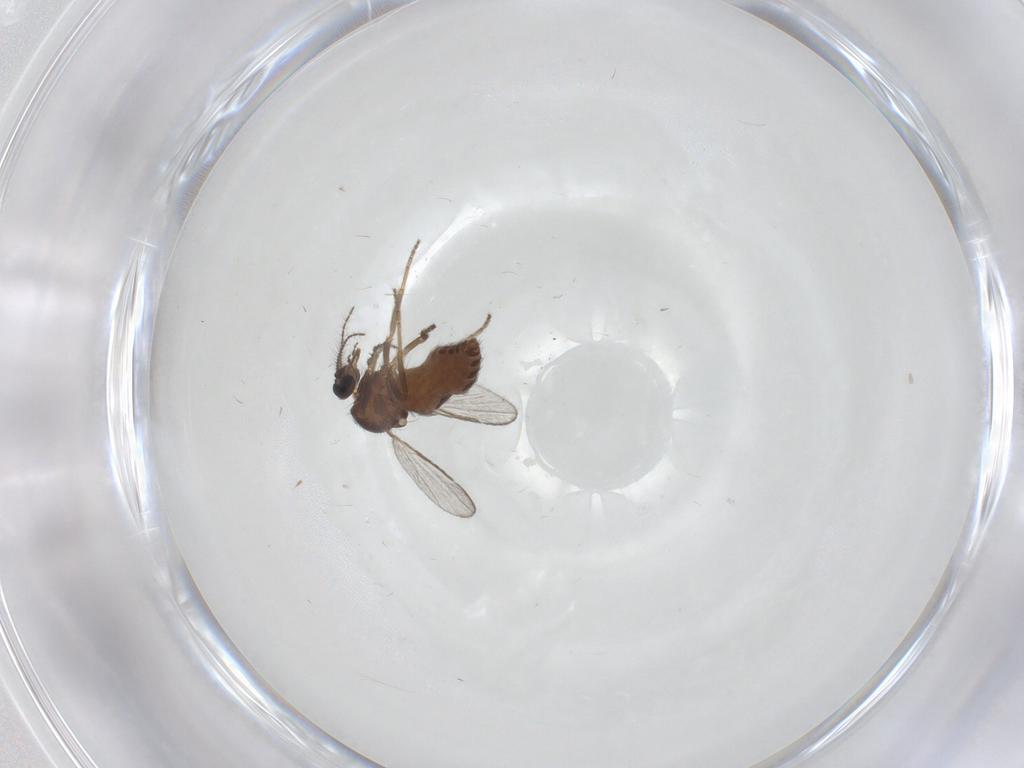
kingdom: Animalia
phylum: Arthropoda
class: Insecta
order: Diptera
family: Ceratopogonidae
